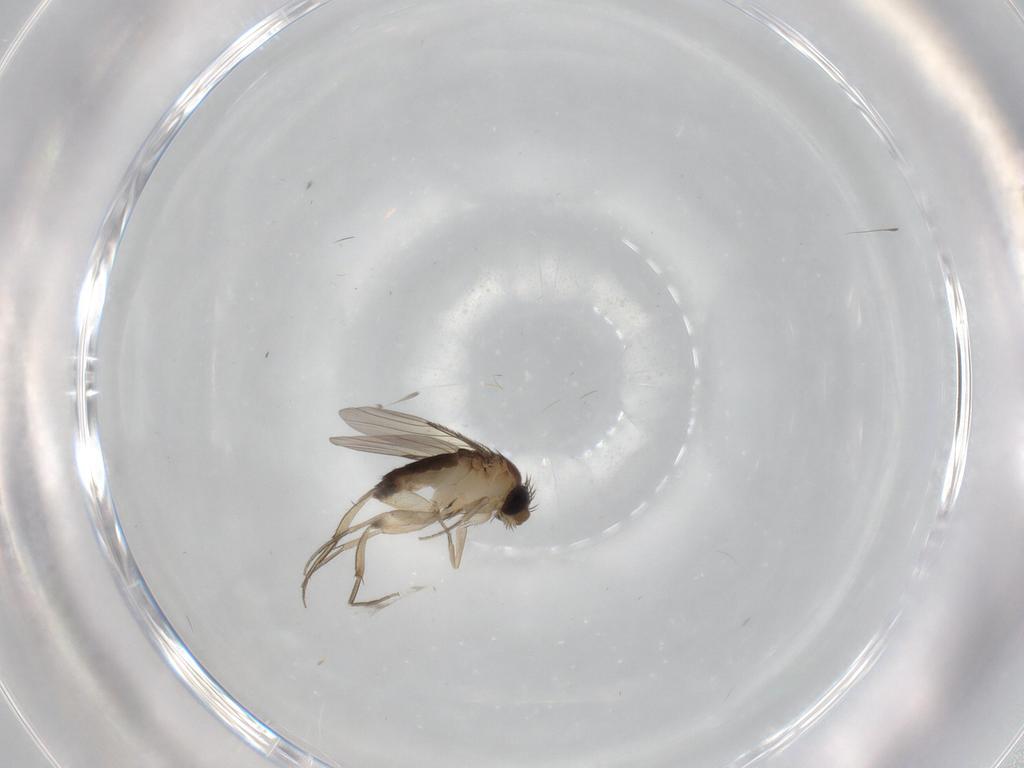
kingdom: Animalia
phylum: Arthropoda
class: Insecta
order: Diptera
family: Phoridae
